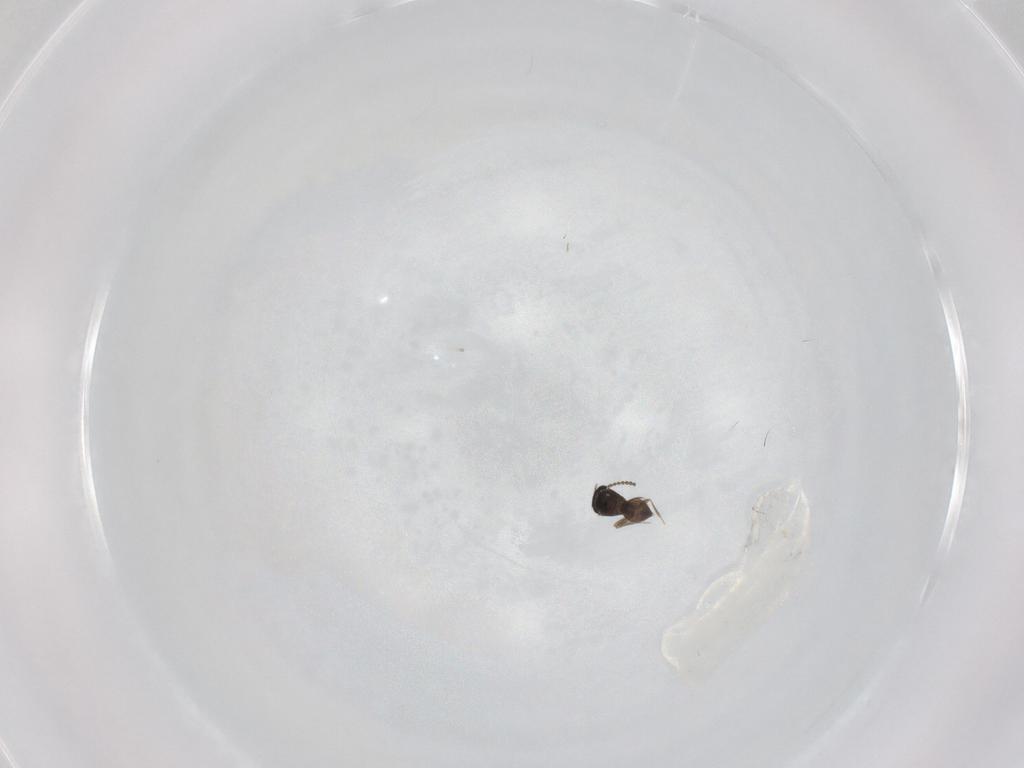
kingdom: Animalia
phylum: Arthropoda
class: Insecta
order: Hymenoptera
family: Scelionidae
